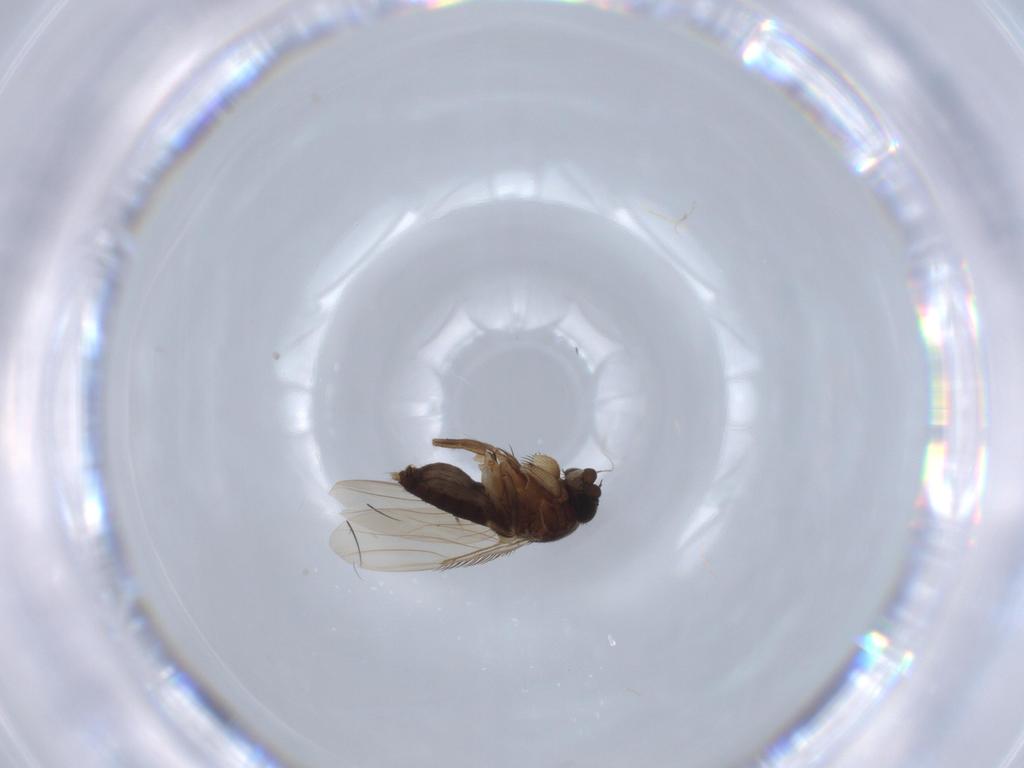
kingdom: Animalia
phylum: Arthropoda
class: Insecta
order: Diptera
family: Phoridae
